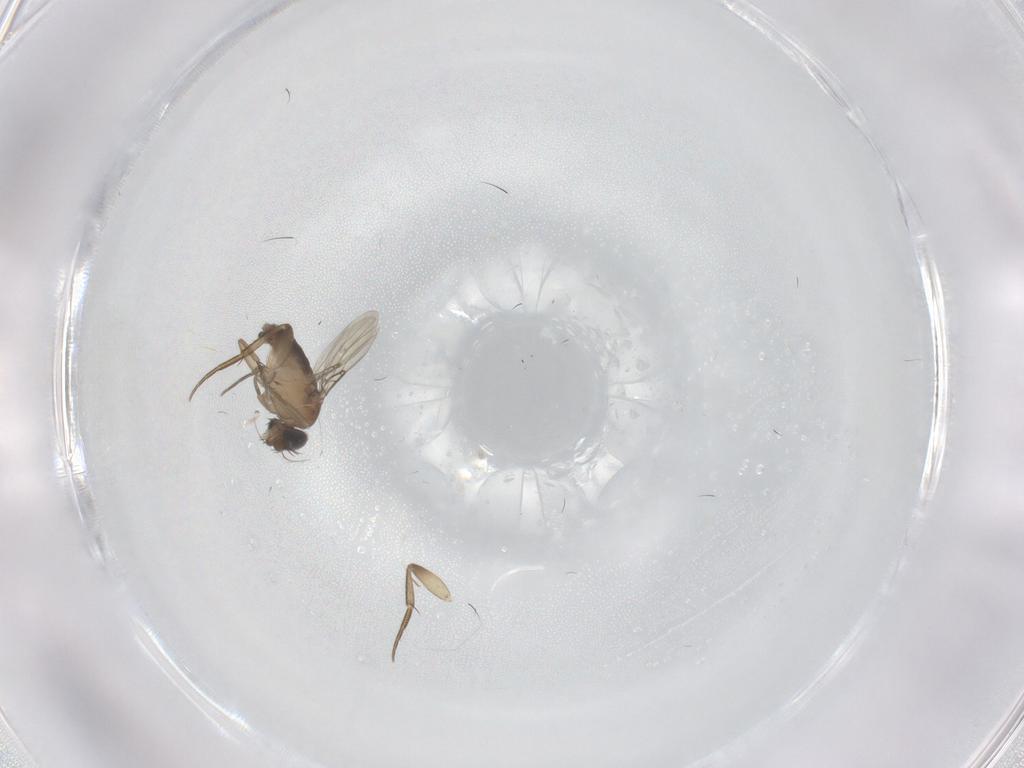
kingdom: Animalia
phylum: Arthropoda
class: Insecta
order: Diptera
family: Phoridae
